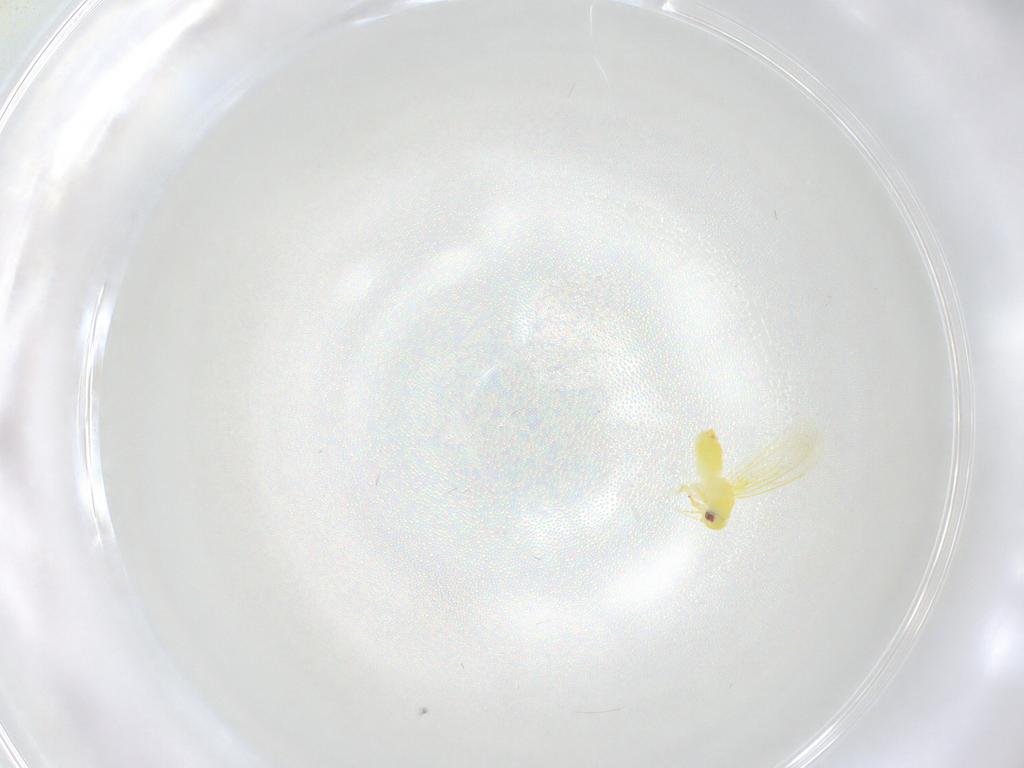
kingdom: Animalia
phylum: Arthropoda
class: Insecta
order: Hemiptera
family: Aleyrodidae
